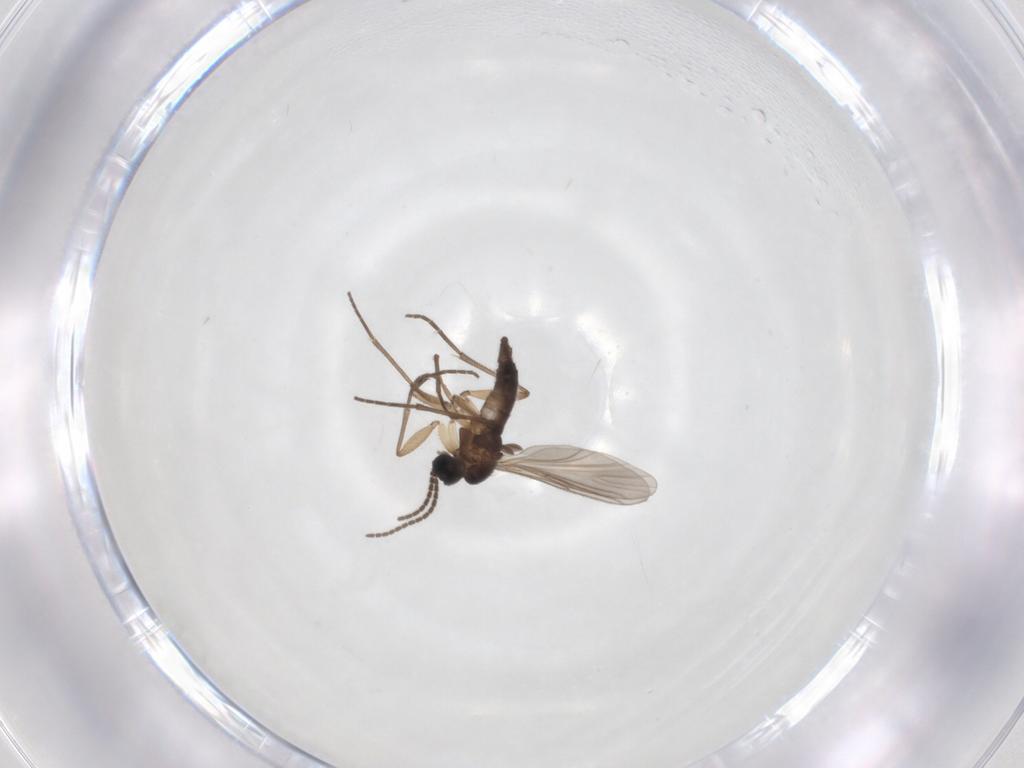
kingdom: Animalia
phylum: Arthropoda
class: Insecta
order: Diptera
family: Sciaridae
